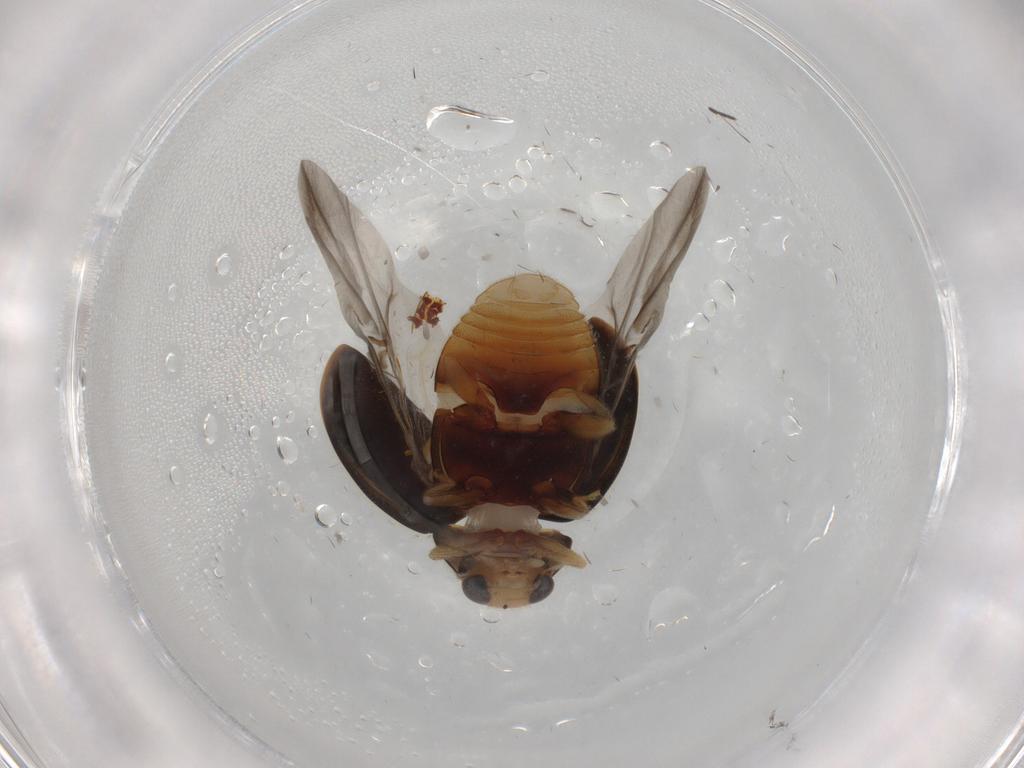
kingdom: Animalia
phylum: Arthropoda
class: Insecta
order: Coleoptera
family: Coccinellidae
